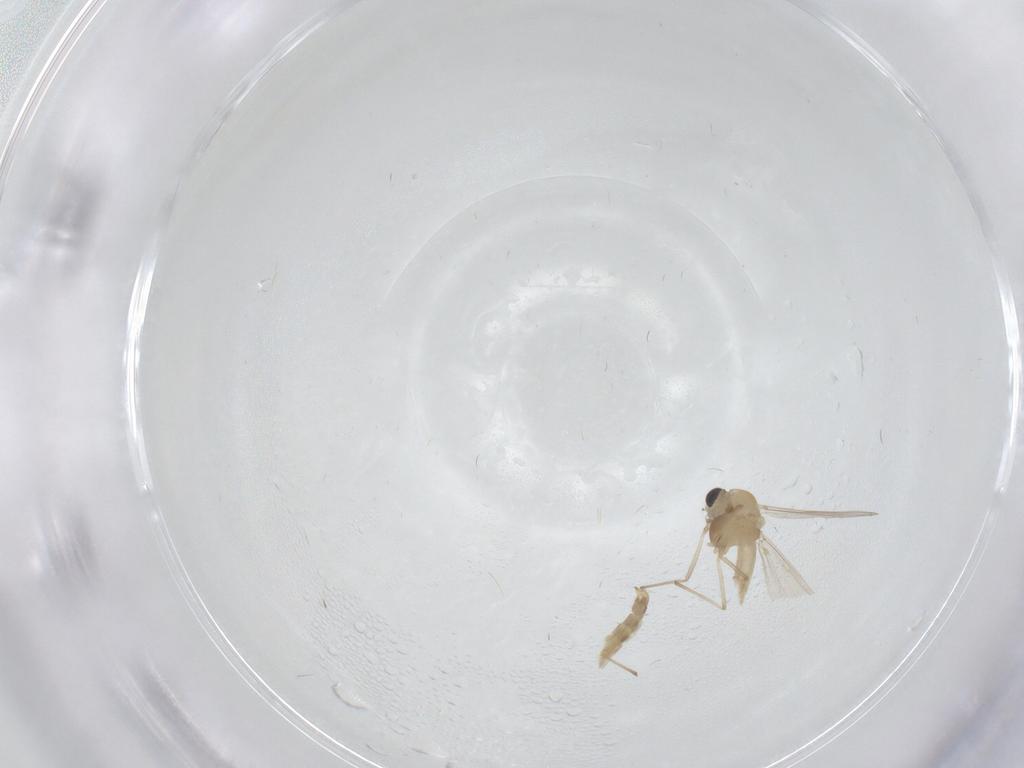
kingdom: Animalia
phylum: Arthropoda
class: Insecta
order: Diptera
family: Chironomidae
